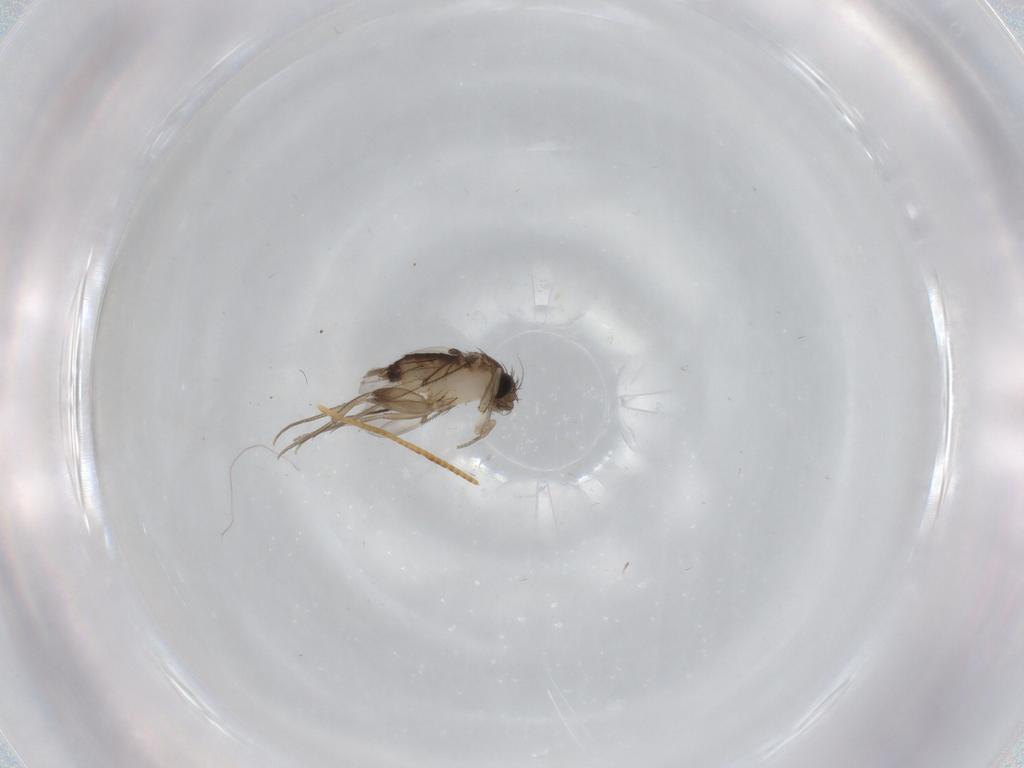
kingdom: Animalia
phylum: Arthropoda
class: Insecta
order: Diptera
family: Cecidomyiidae
